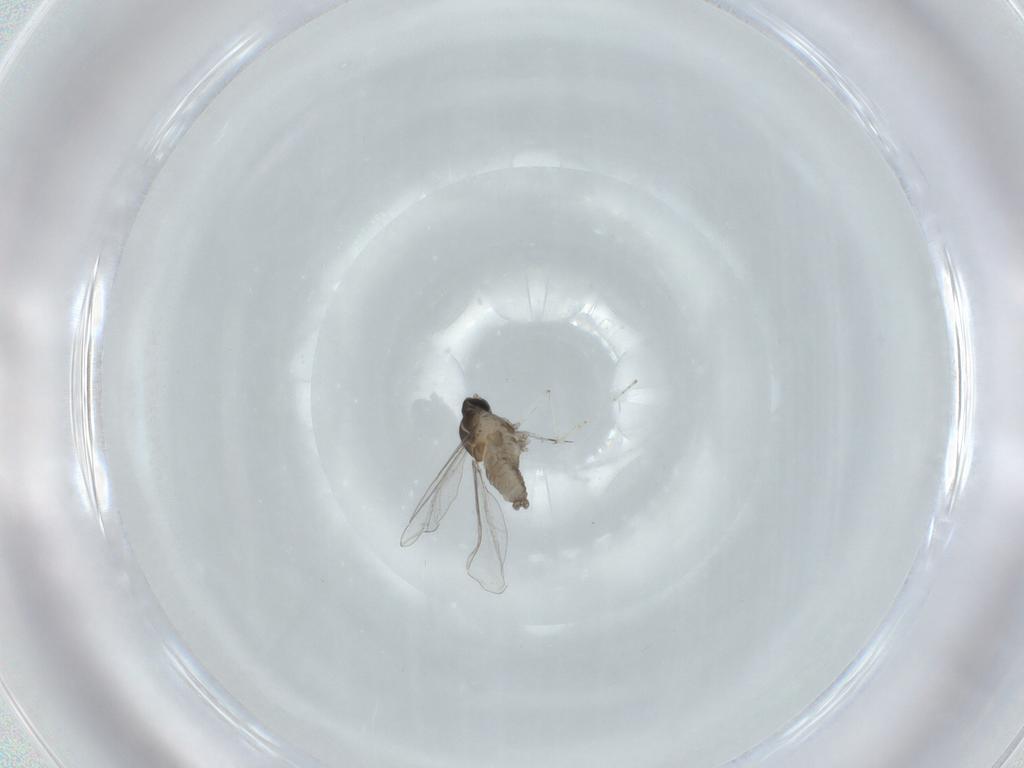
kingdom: Animalia
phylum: Arthropoda
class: Insecta
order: Diptera
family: Cecidomyiidae
